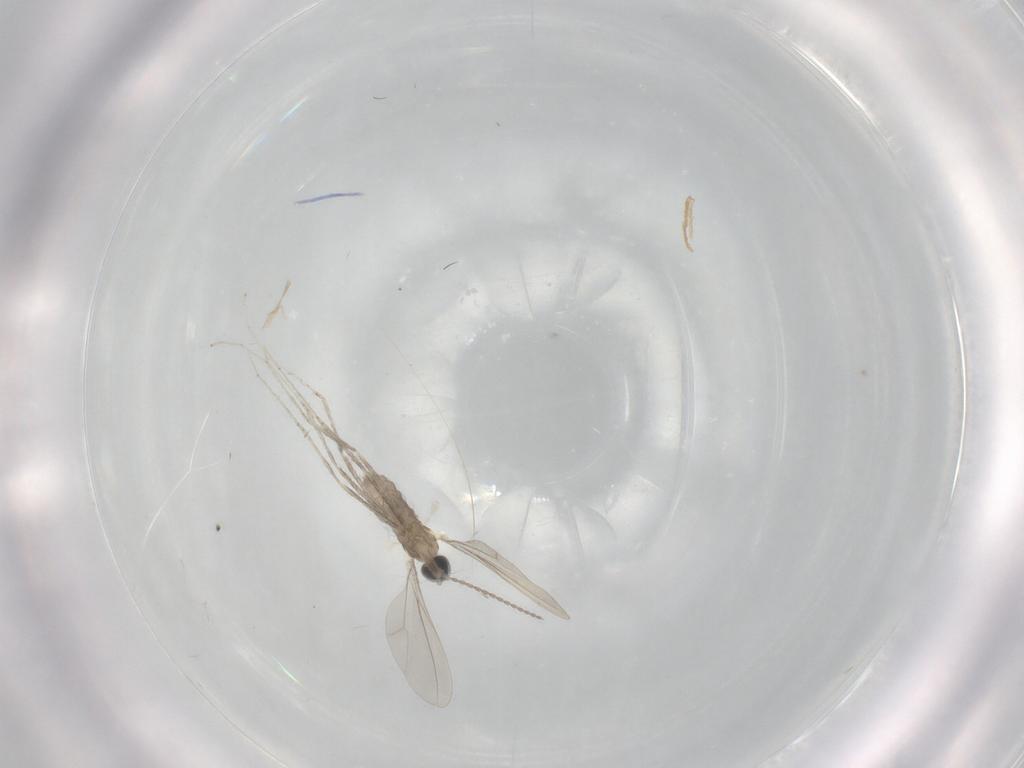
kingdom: Animalia
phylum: Arthropoda
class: Insecta
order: Diptera
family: Cecidomyiidae
